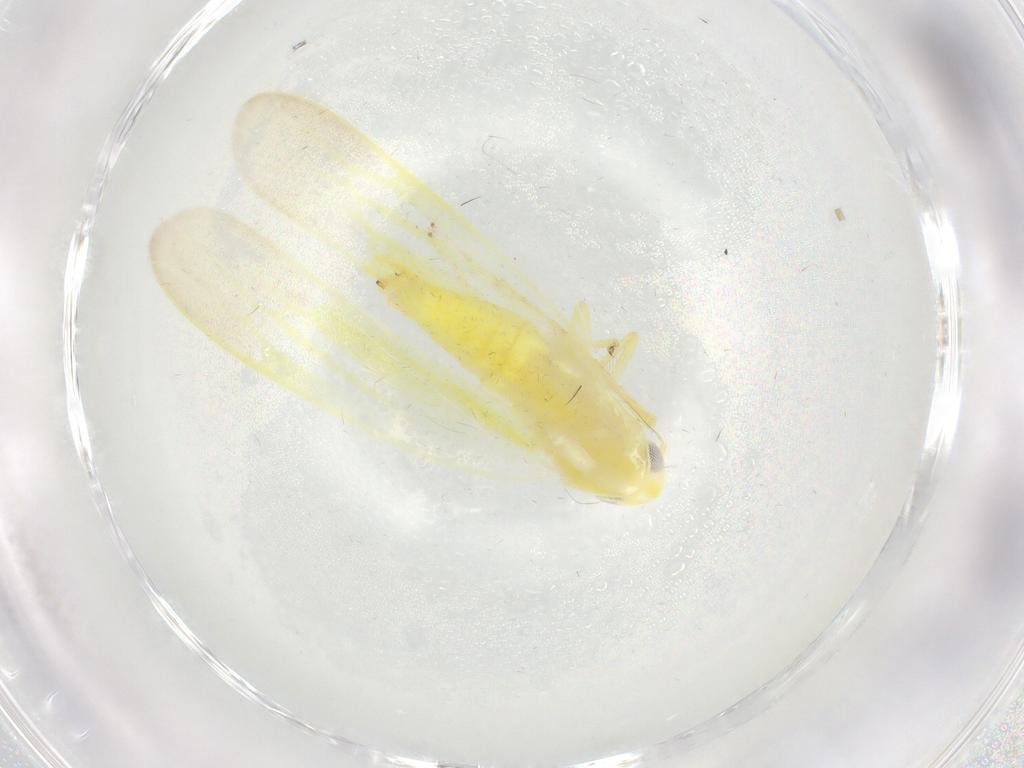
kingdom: Animalia
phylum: Arthropoda
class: Insecta
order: Hemiptera
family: Cicadellidae
